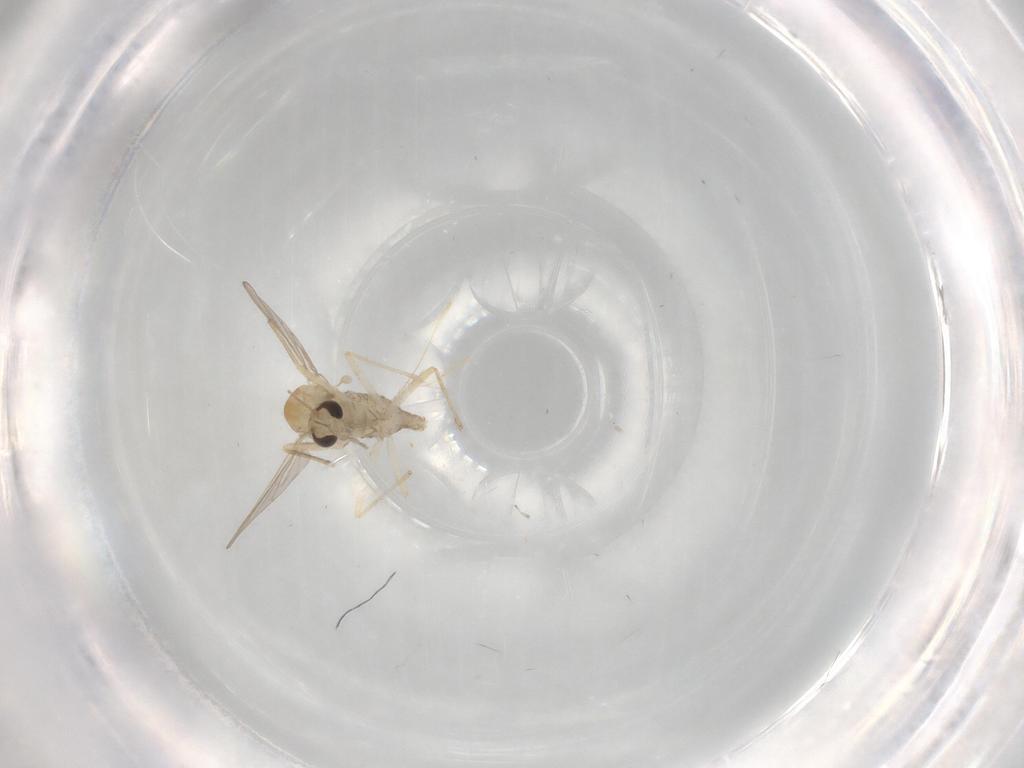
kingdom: Animalia
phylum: Arthropoda
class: Insecta
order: Diptera
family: Chironomidae
